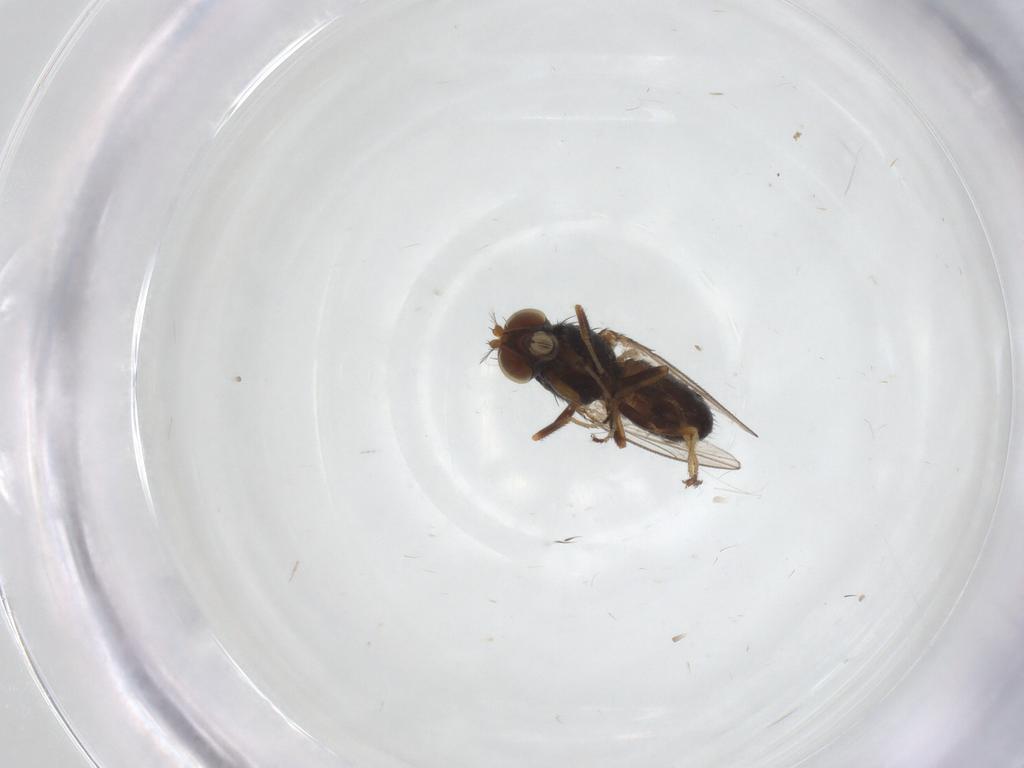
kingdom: Animalia
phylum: Arthropoda
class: Insecta
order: Diptera
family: Ephydridae
